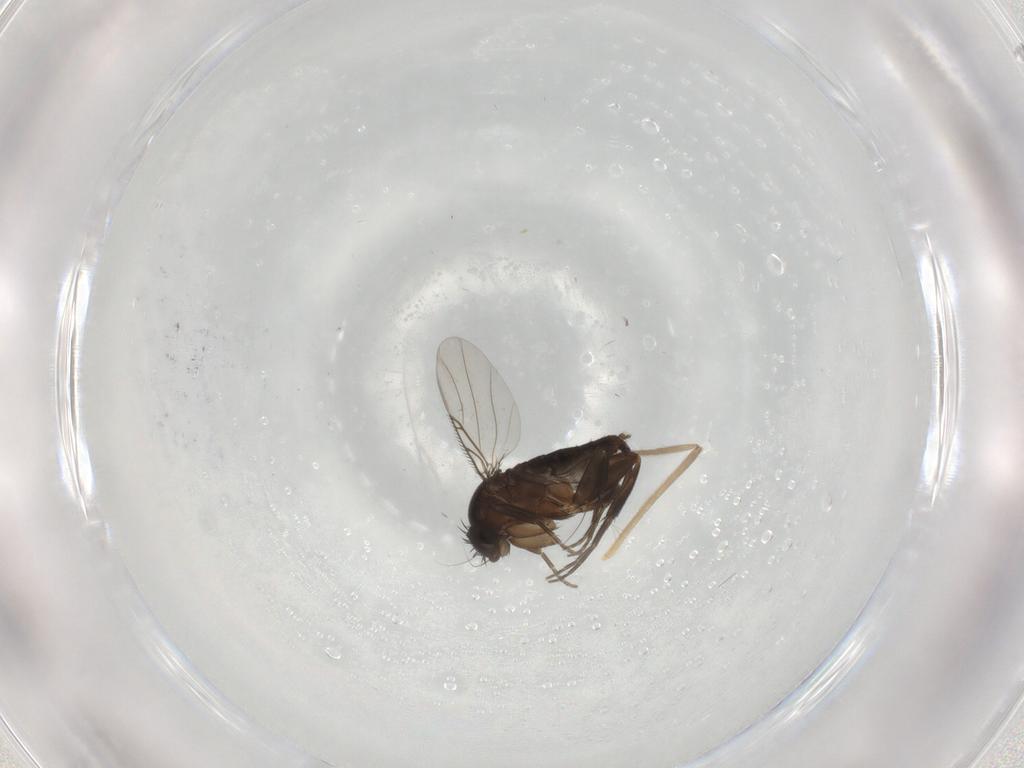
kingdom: Animalia
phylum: Arthropoda
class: Insecta
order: Diptera
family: Phoridae
